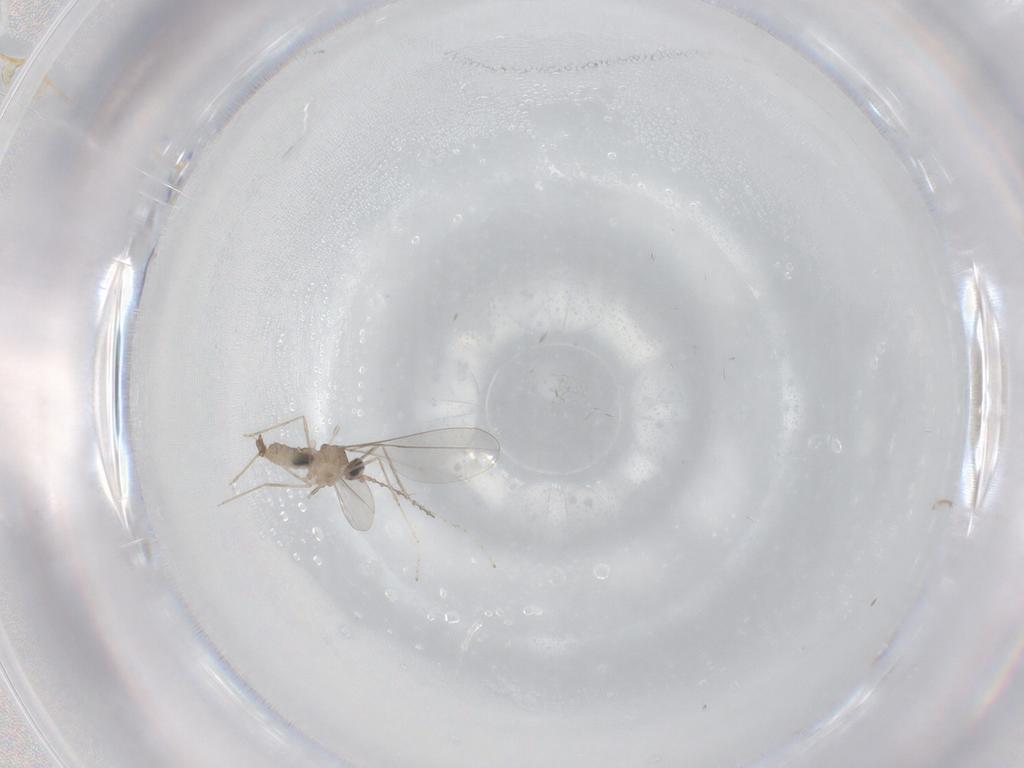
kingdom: Animalia
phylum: Arthropoda
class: Insecta
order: Diptera
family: Cecidomyiidae
